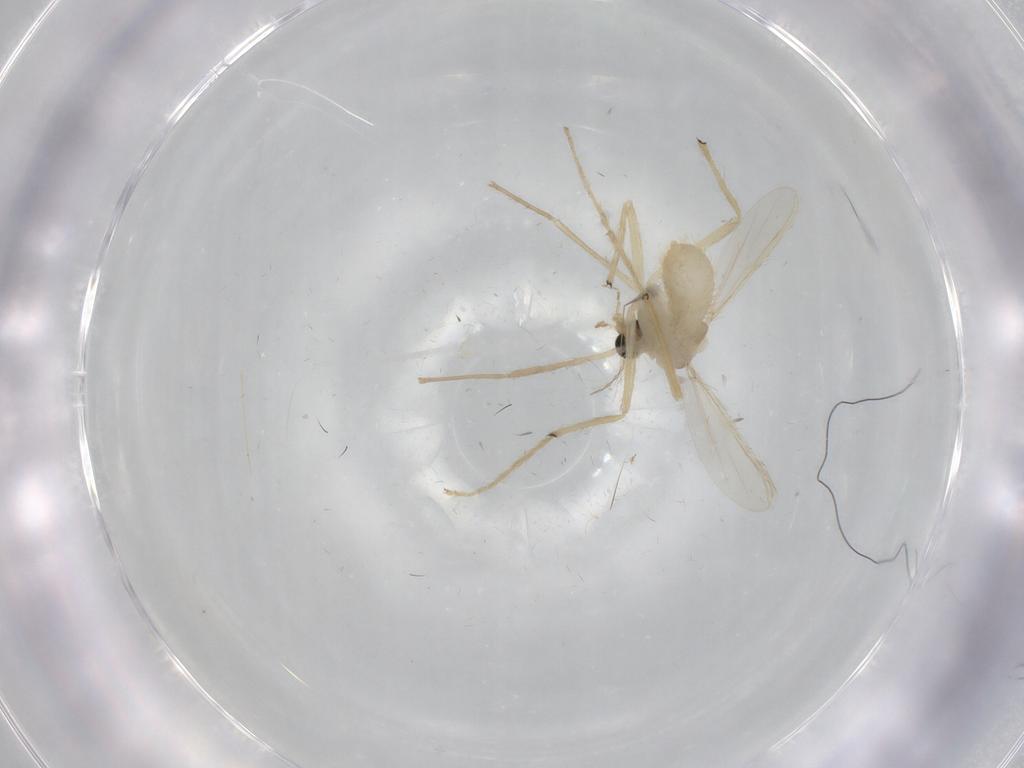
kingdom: Animalia
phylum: Arthropoda
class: Insecta
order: Diptera
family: Chironomidae
